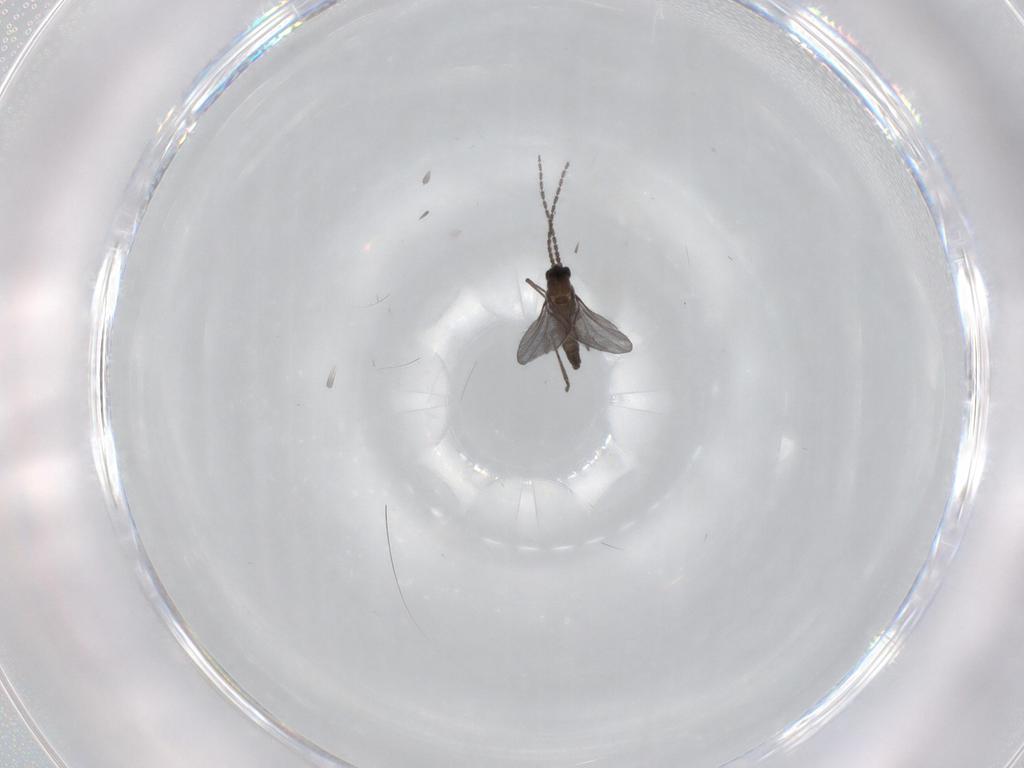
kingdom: Animalia
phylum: Arthropoda
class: Insecta
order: Diptera
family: Sciaridae
